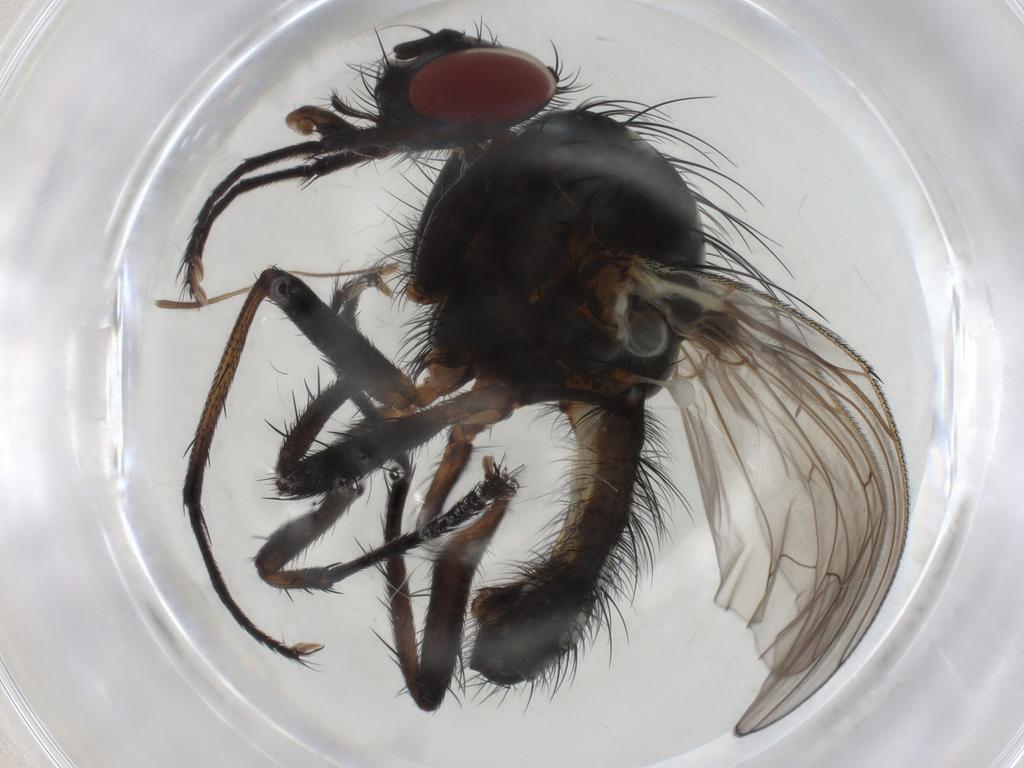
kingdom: Animalia
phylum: Arthropoda
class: Insecta
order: Diptera
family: Anthomyiidae
